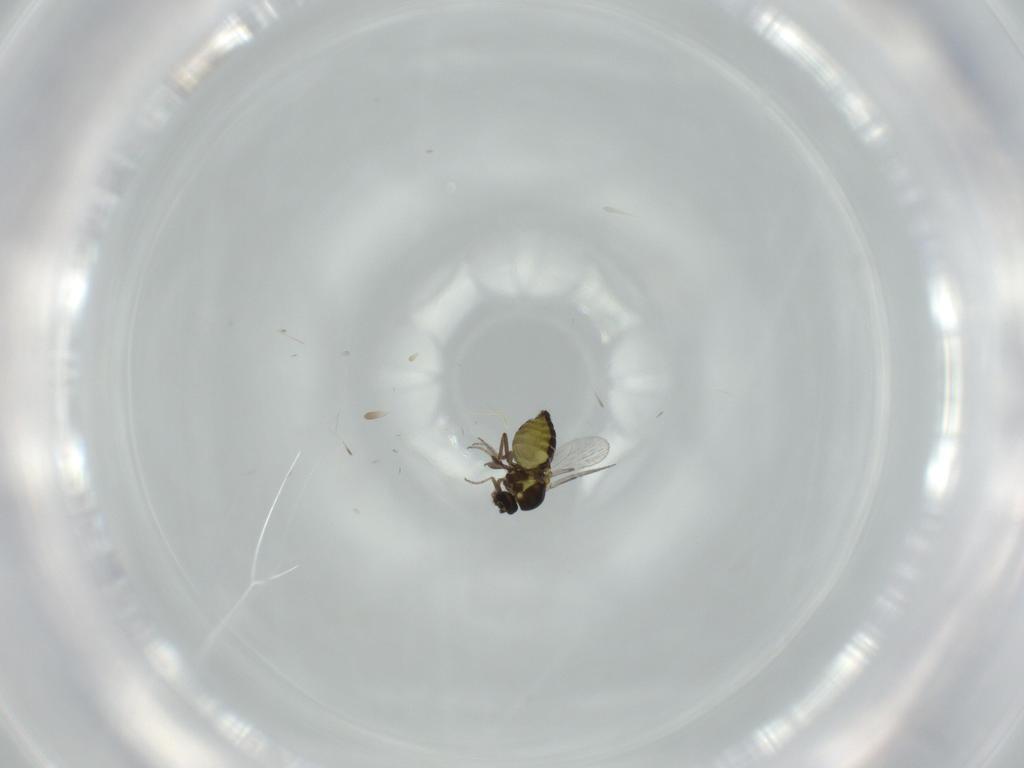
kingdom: Animalia
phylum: Arthropoda
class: Insecta
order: Diptera
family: Ceratopogonidae
